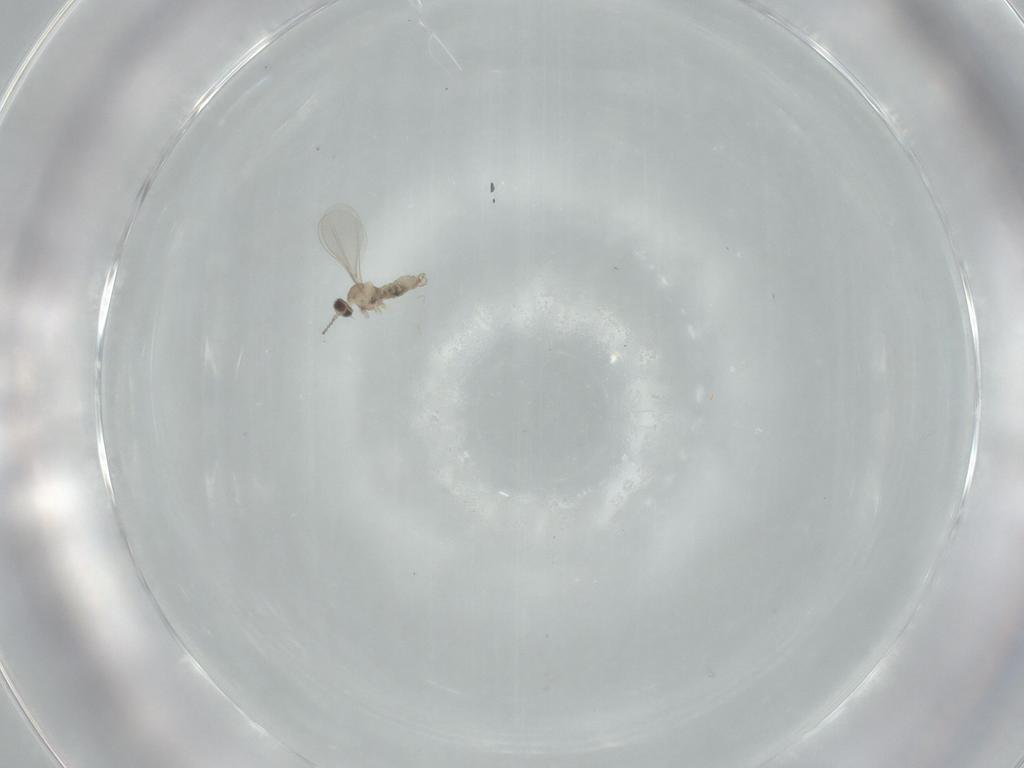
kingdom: Animalia
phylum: Arthropoda
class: Insecta
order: Diptera
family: Cecidomyiidae
